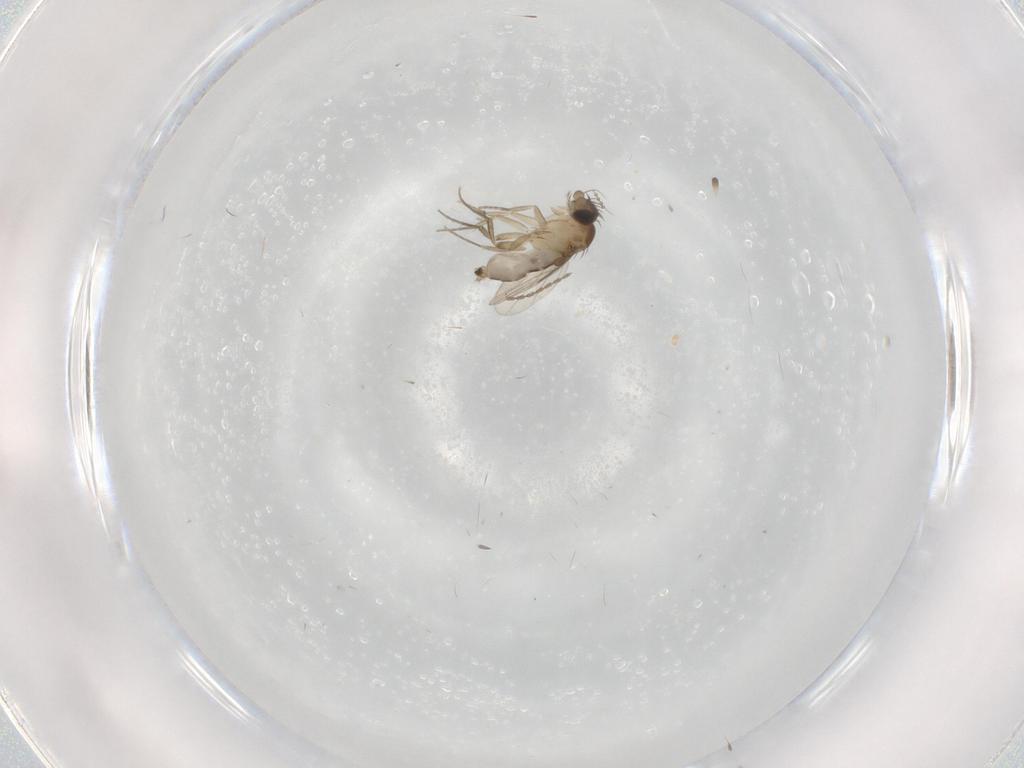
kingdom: Animalia
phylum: Arthropoda
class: Insecta
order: Diptera
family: Phoridae
